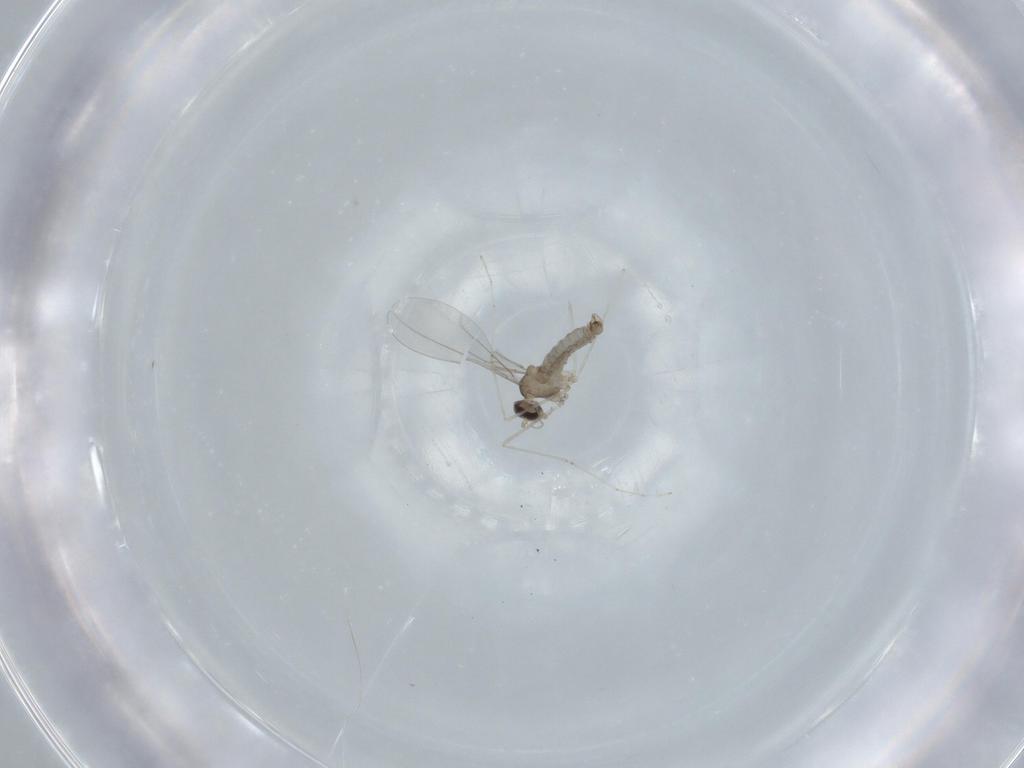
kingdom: Animalia
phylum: Arthropoda
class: Insecta
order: Diptera
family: Cecidomyiidae
